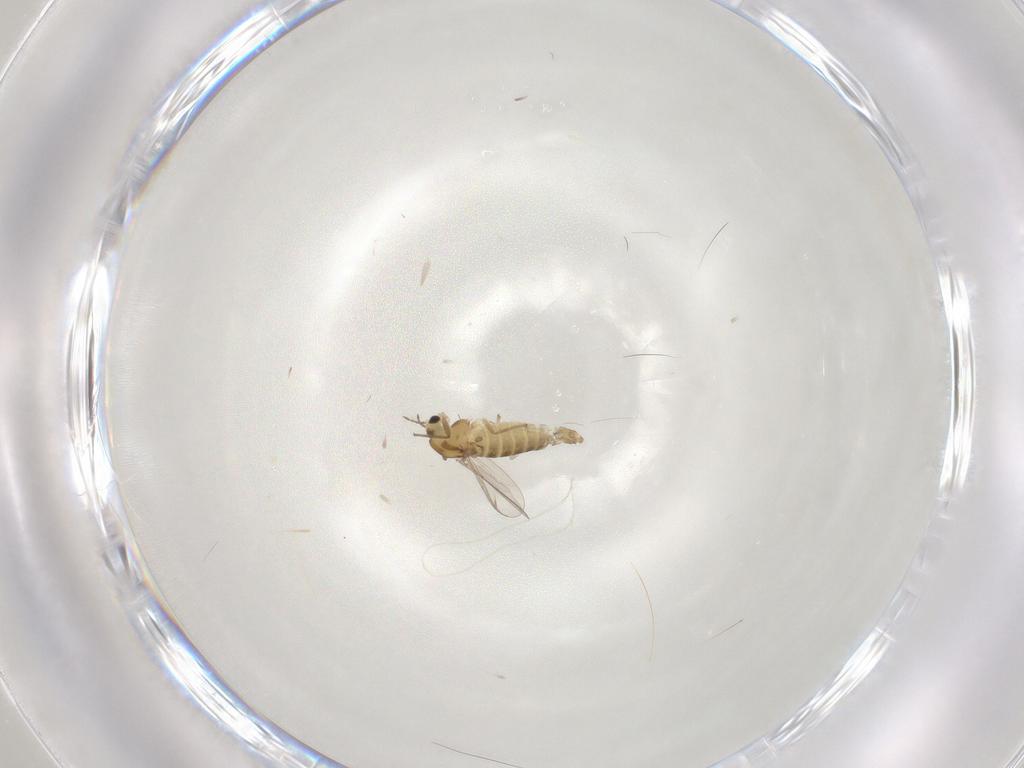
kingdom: Animalia
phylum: Arthropoda
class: Insecta
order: Diptera
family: Chironomidae
